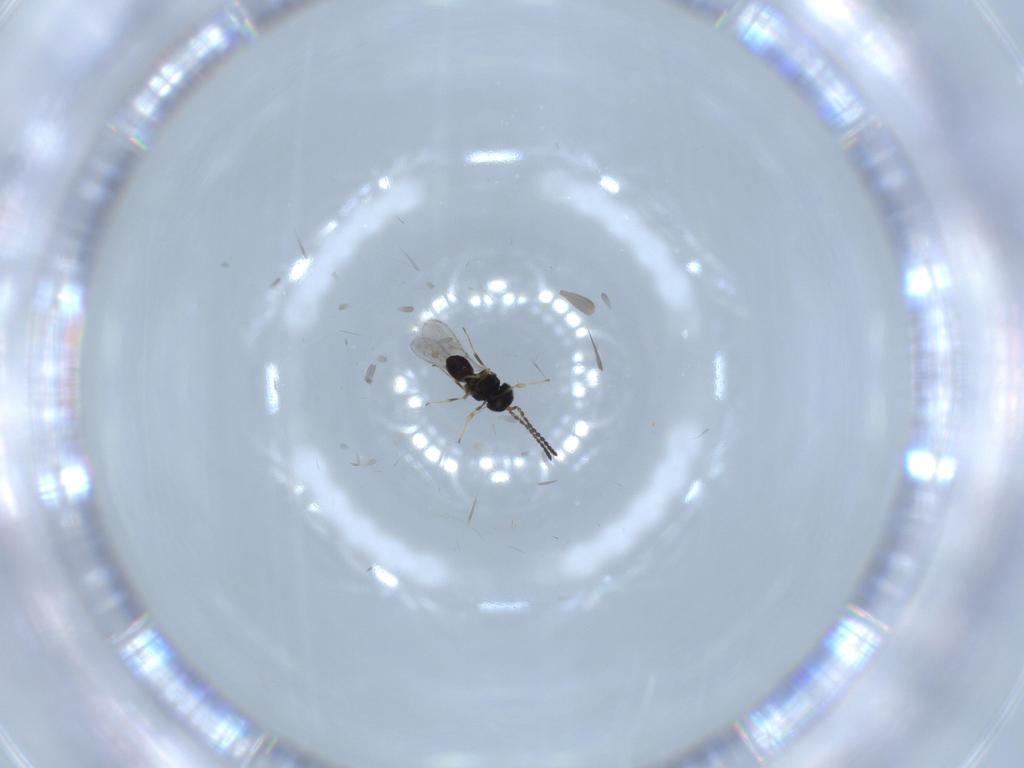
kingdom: Animalia
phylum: Arthropoda
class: Insecta
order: Hymenoptera
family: Scelionidae
